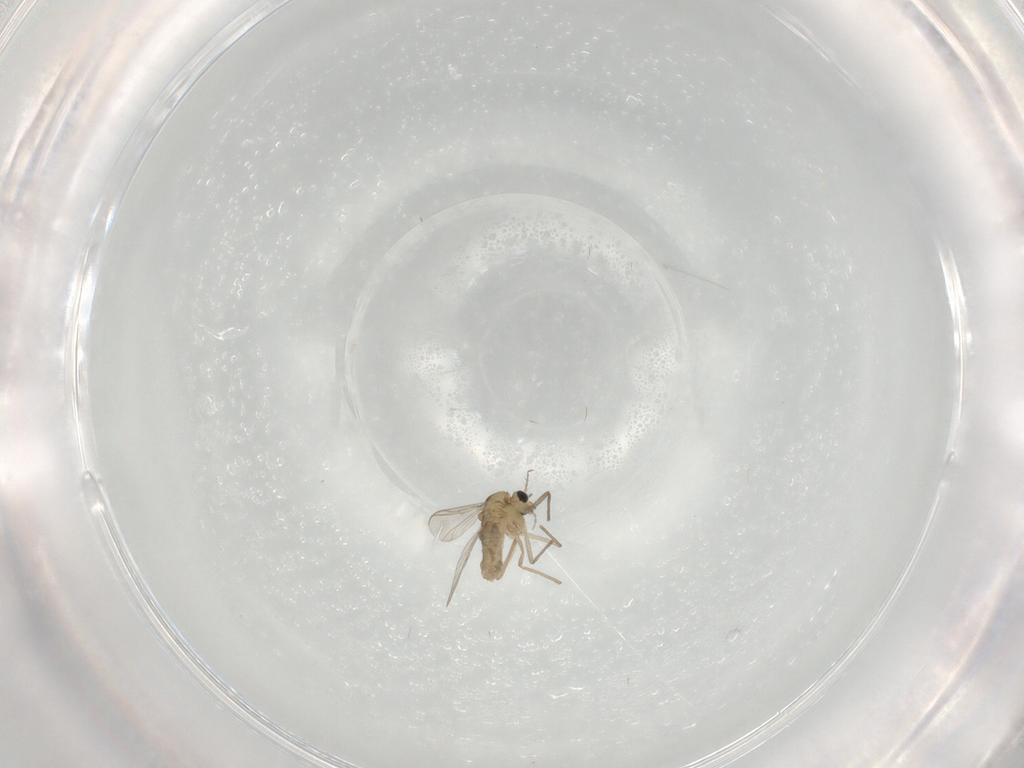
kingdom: Animalia
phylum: Arthropoda
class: Insecta
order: Diptera
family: Chironomidae
